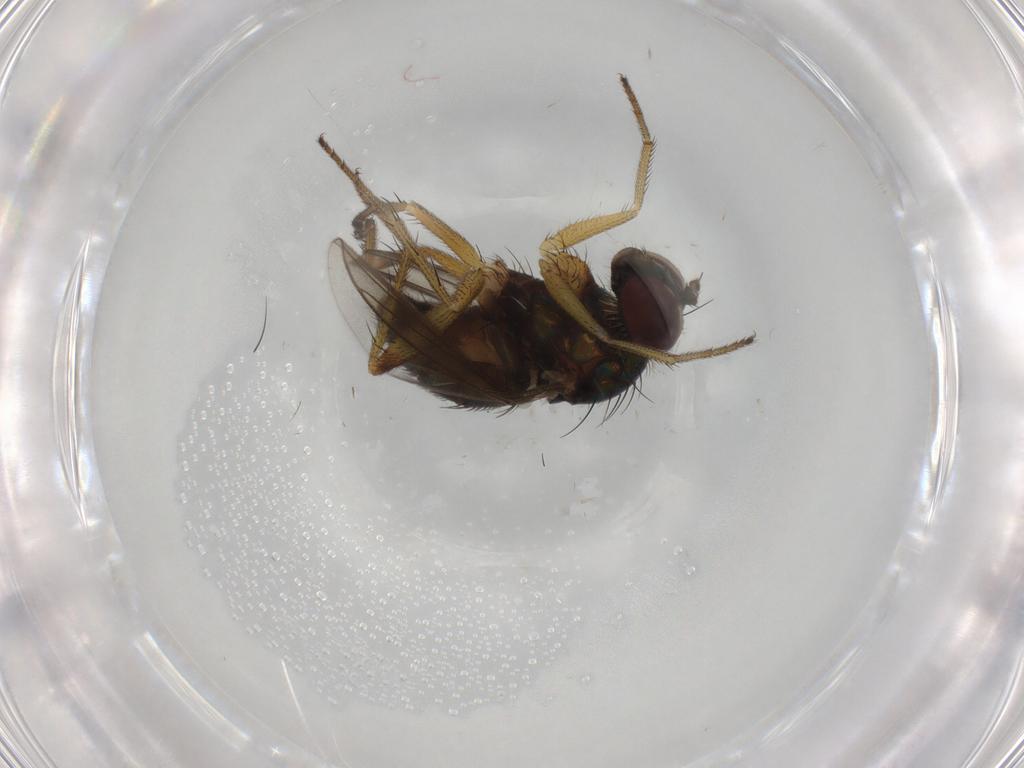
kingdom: Animalia
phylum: Arthropoda
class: Insecta
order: Diptera
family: Dolichopodidae
